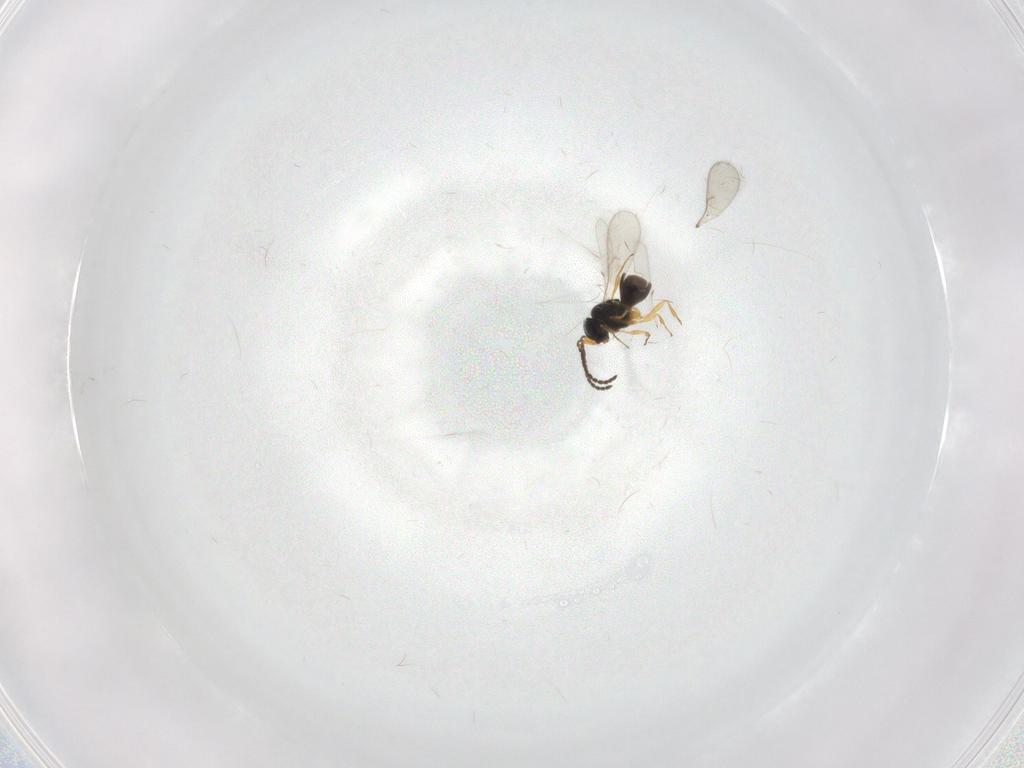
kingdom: Animalia
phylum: Arthropoda
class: Insecta
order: Hymenoptera
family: Scelionidae
